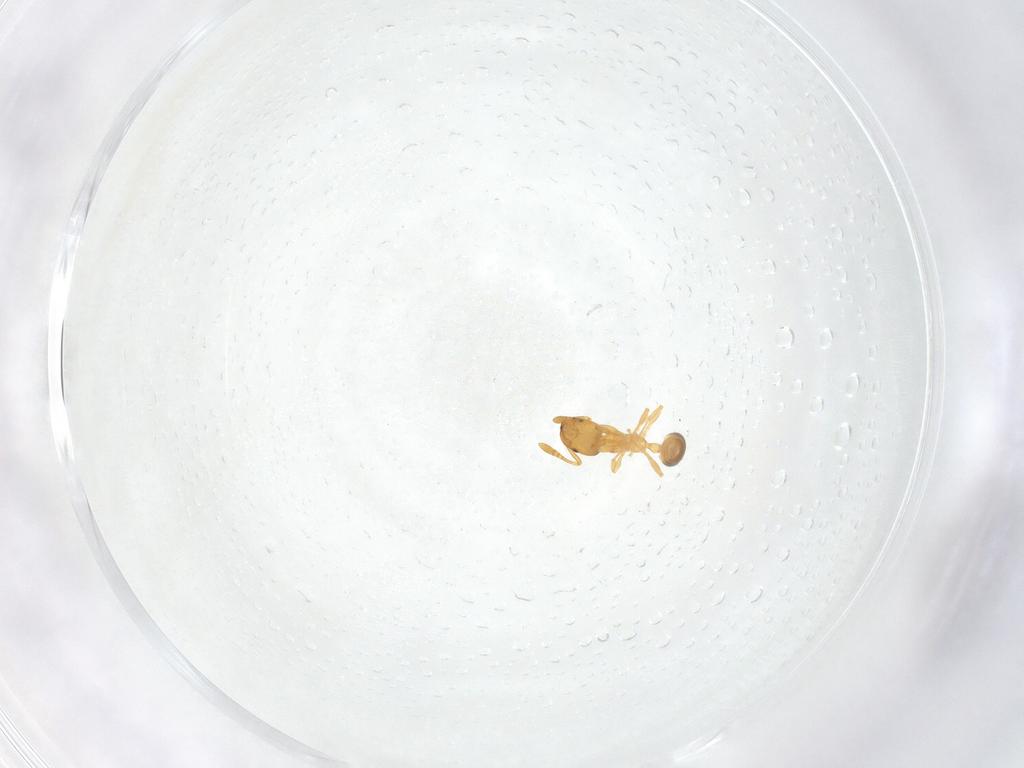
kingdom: Animalia
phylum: Arthropoda
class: Insecta
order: Hymenoptera
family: Formicidae
